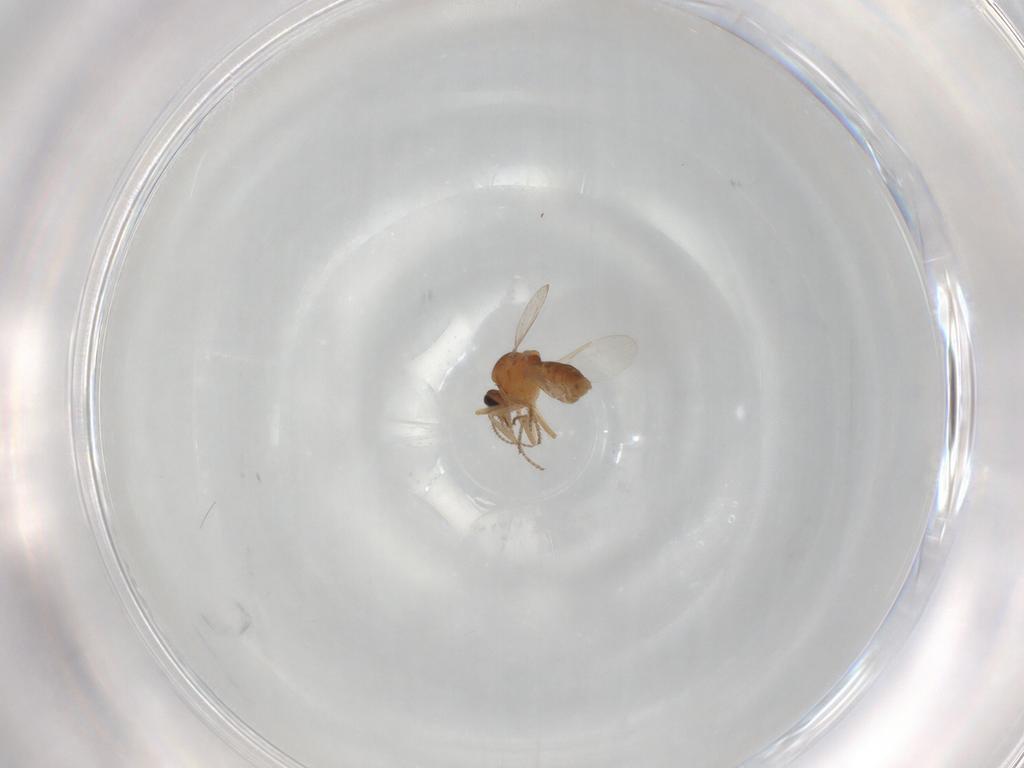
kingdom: Animalia
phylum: Arthropoda
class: Insecta
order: Diptera
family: Ceratopogonidae
